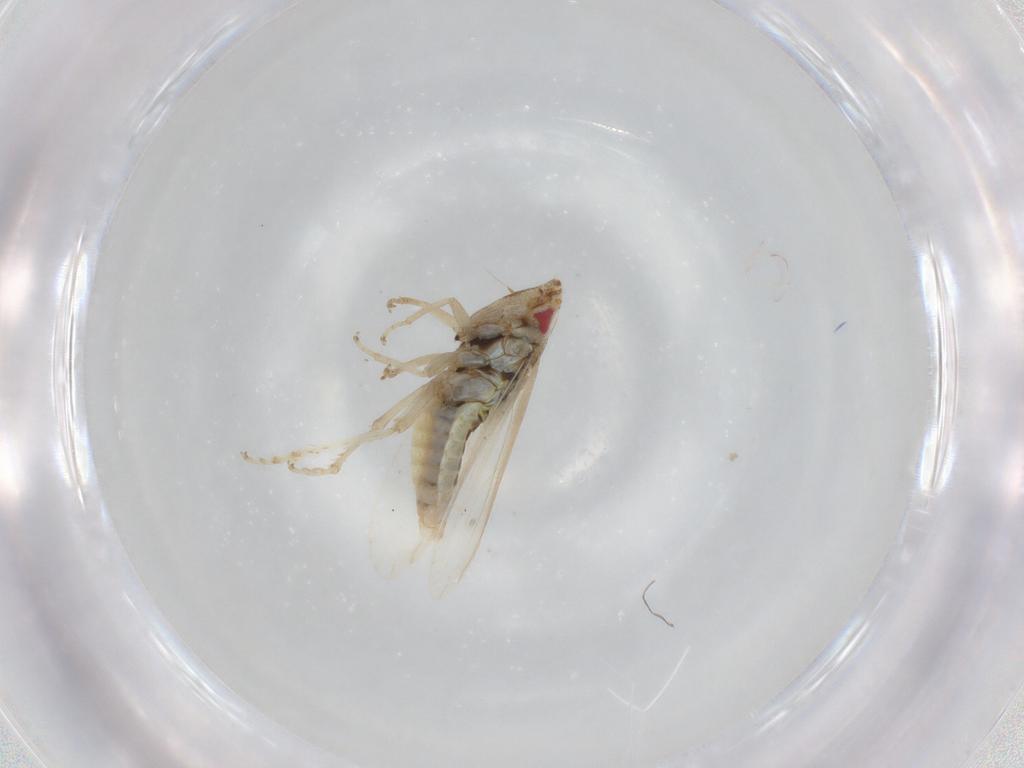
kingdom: Animalia
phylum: Arthropoda
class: Insecta
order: Hemiptera
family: Cicadellidae
